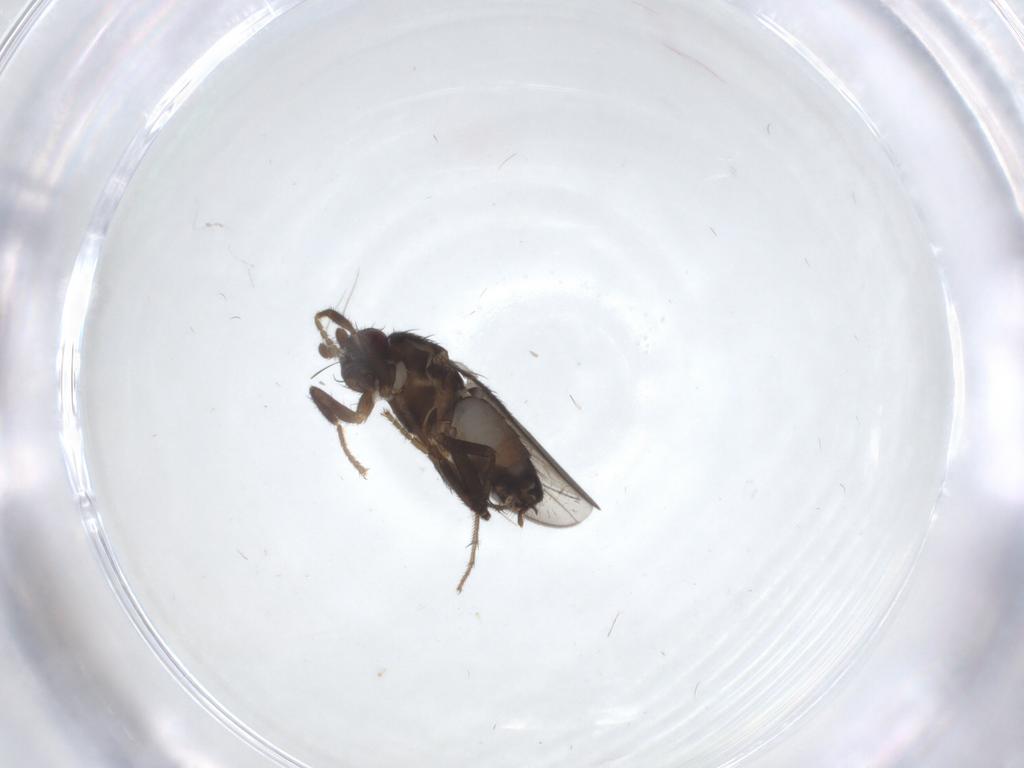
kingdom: Animalia
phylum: Arthropoda
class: Insecta
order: Diptera
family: Sphaeroceridae
